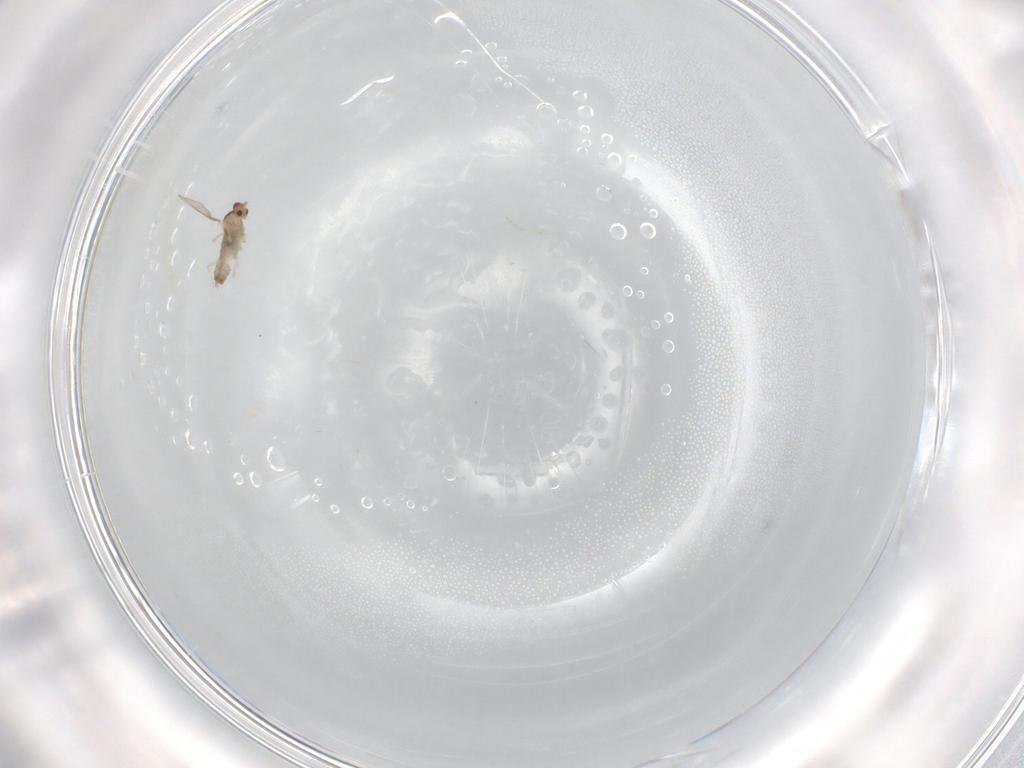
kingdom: Animalia
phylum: Arthropoda
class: Insecta
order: Diptera
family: Cecidomyiidae
